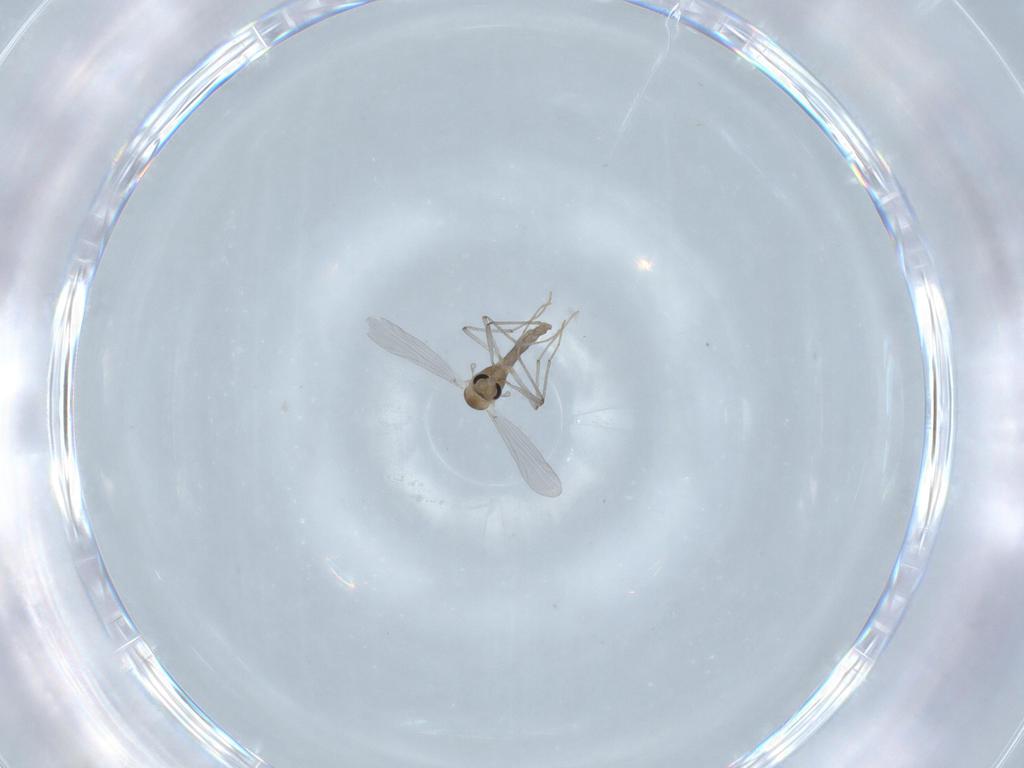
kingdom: Animalia
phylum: Arthropoda
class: Insecta
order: Diptera
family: Chironomidae
